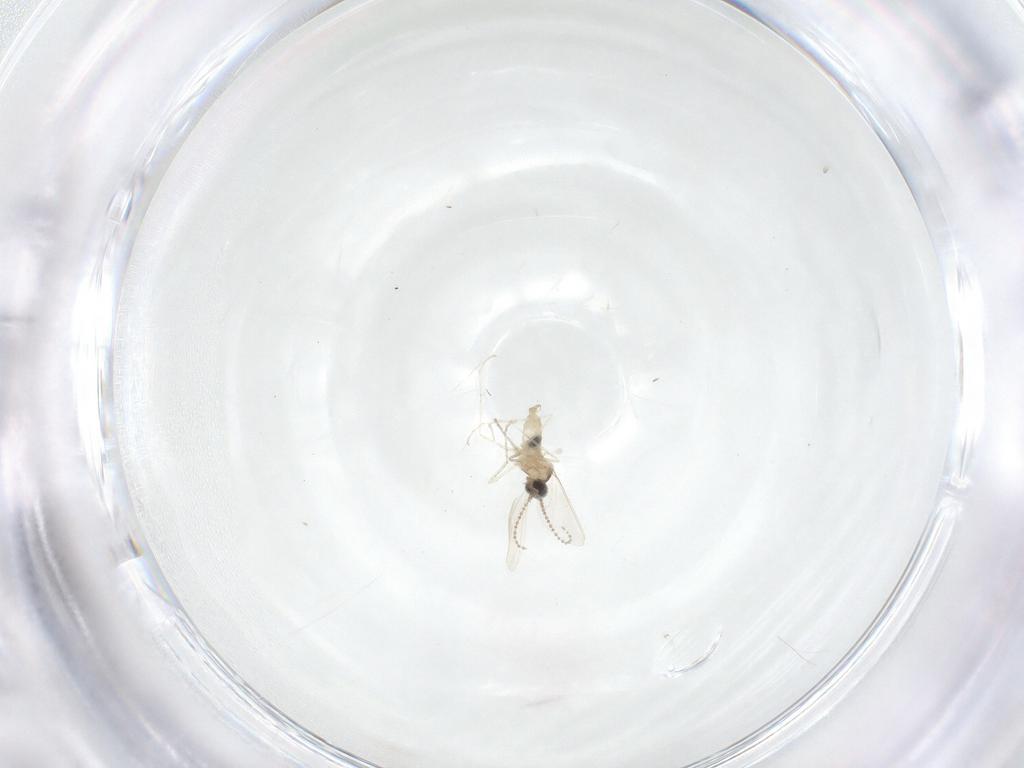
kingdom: Animalia
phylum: Arthropoda
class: Insecta
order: Diptera
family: Cecidomyiidae
